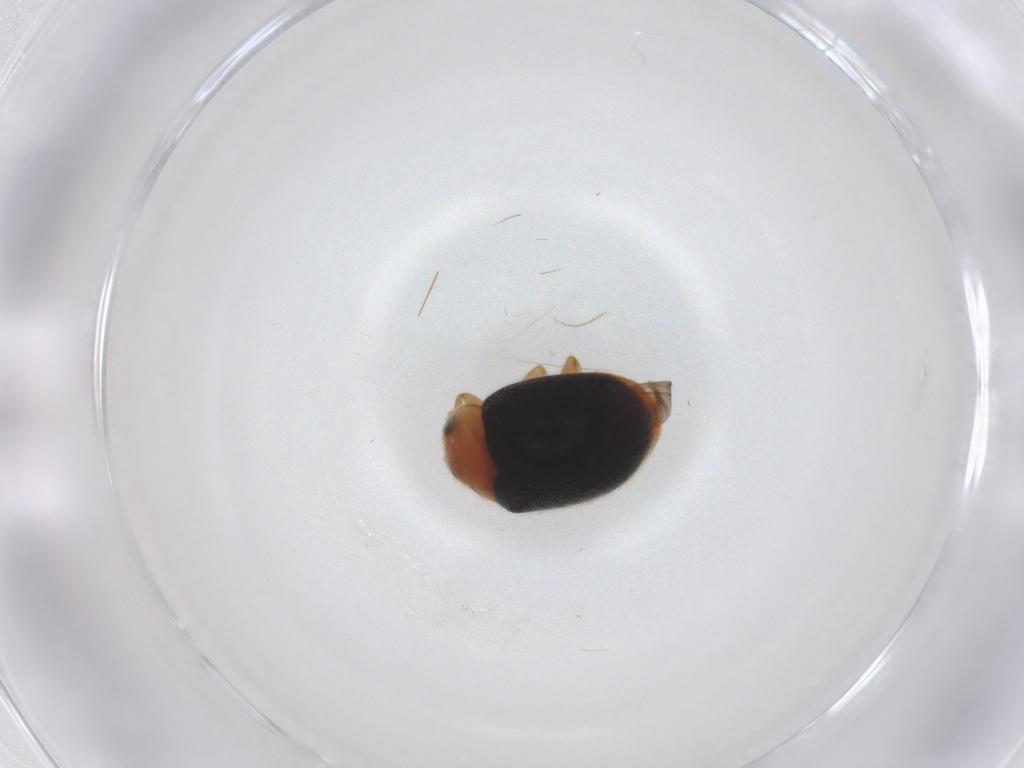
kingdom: Animalia
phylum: Arthropoda
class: Insecta
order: Coleoptera
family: Coccinellidae
